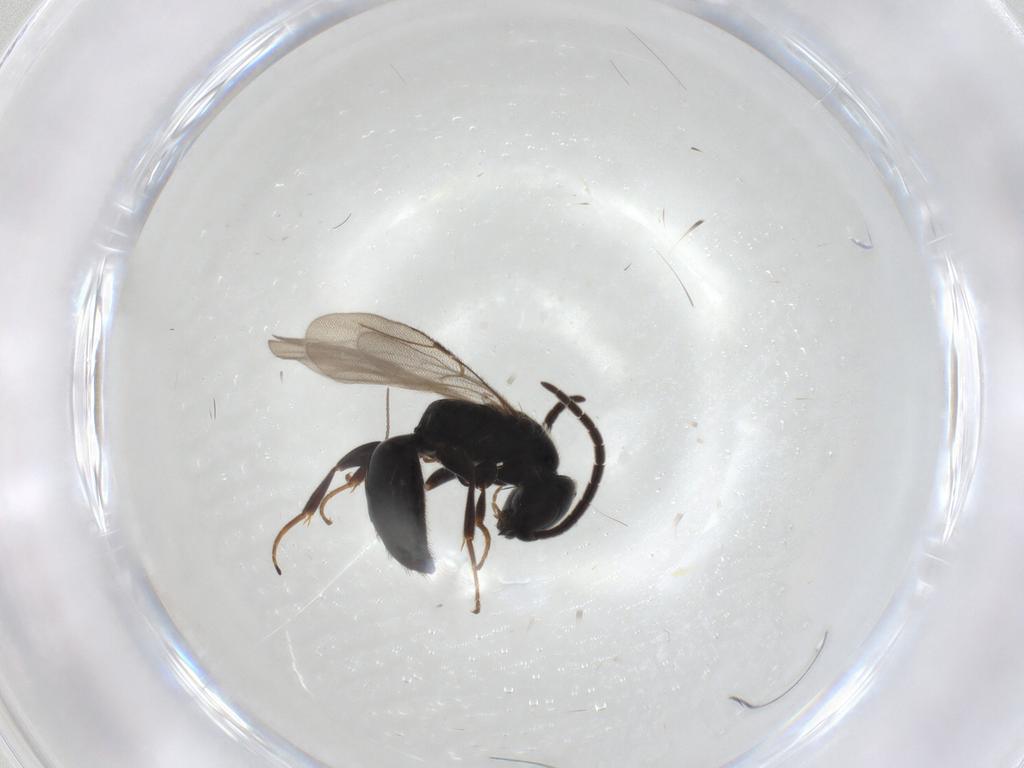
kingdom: Animalia
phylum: Arthropoda
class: Insecta
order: Hymenoptera
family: Bethylidae
